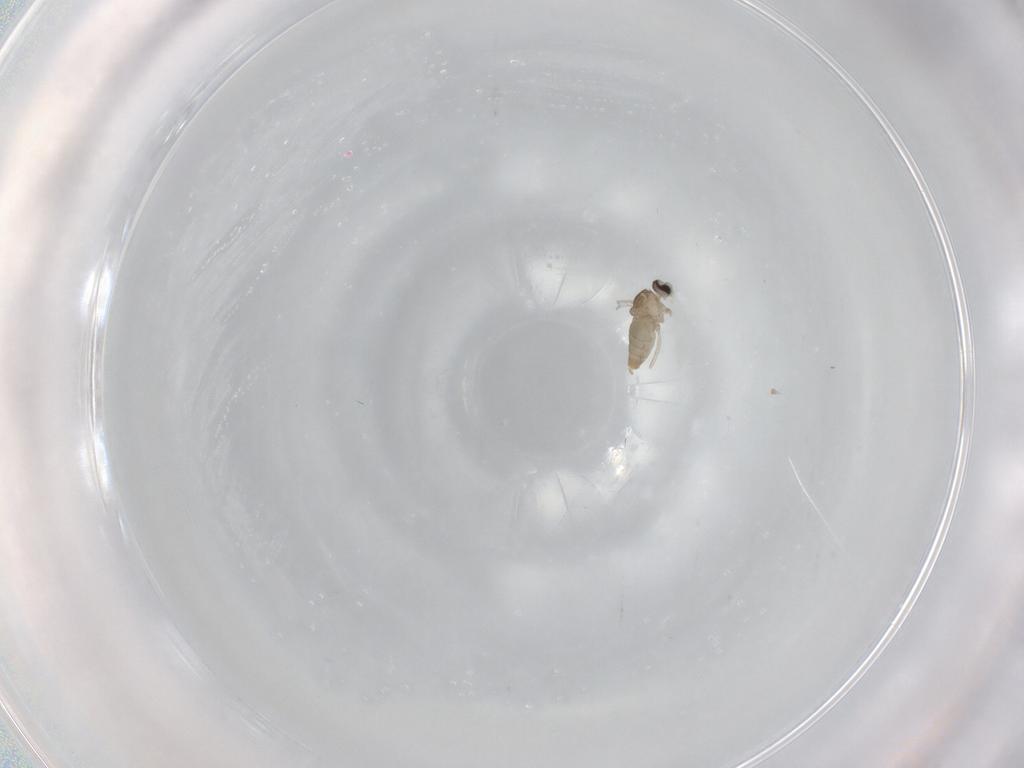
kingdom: Animalia
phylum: Arthropoda
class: Insecta
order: Diptera
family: Cecidomyiidae
